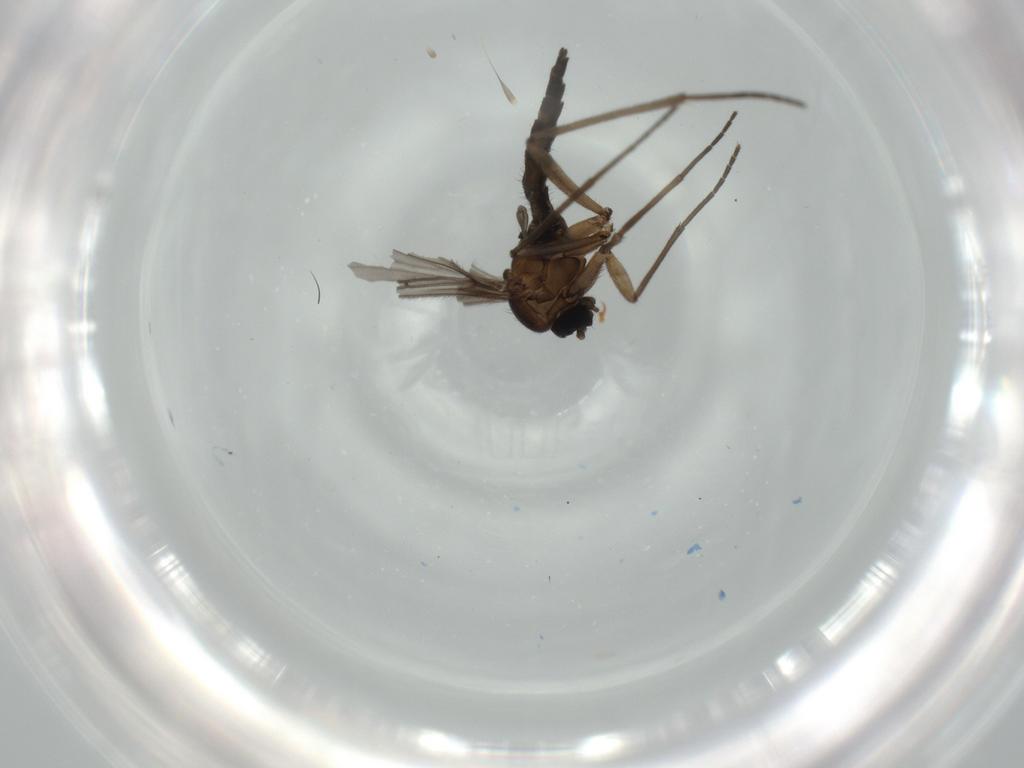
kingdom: Animalia
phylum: Arthropoda
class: Insecta
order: Diptera
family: Sciaridae
